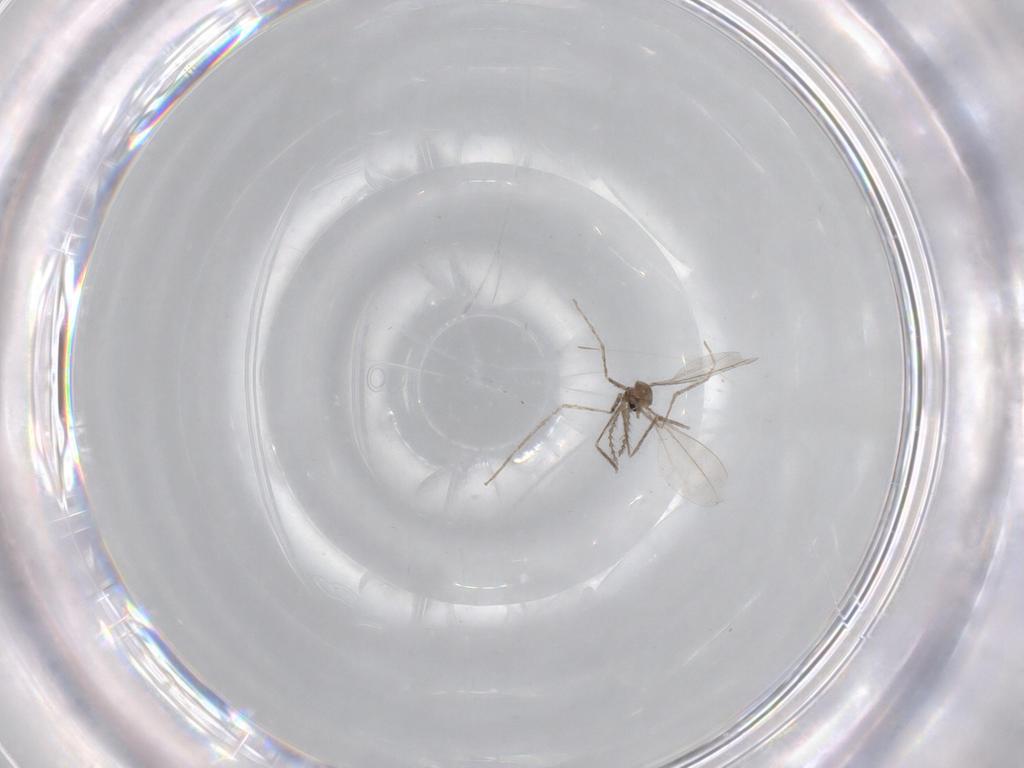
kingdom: Animalia
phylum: Arthropoda
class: Insecta
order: Diptera
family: Cecidomyiidae
